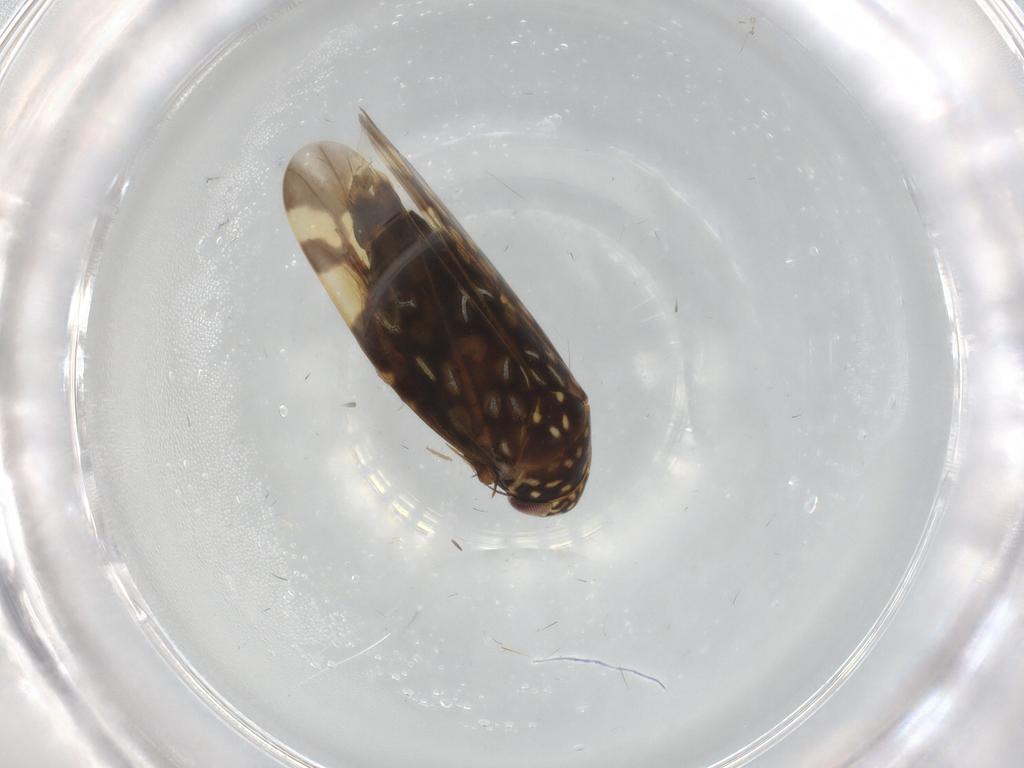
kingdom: Animalia
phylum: Arthropoda
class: Insecta
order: Hemiptera
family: Cicadellidae
